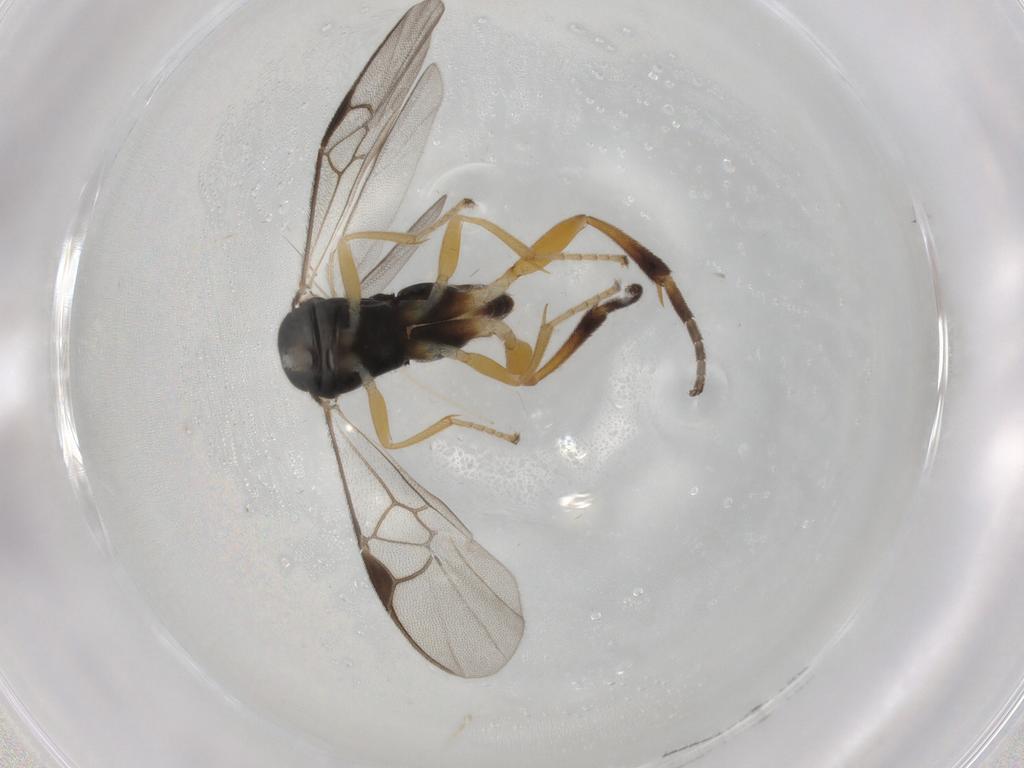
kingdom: Animalia
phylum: Arthropoda
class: Insecta
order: Hymenoptera
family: Braconidae
